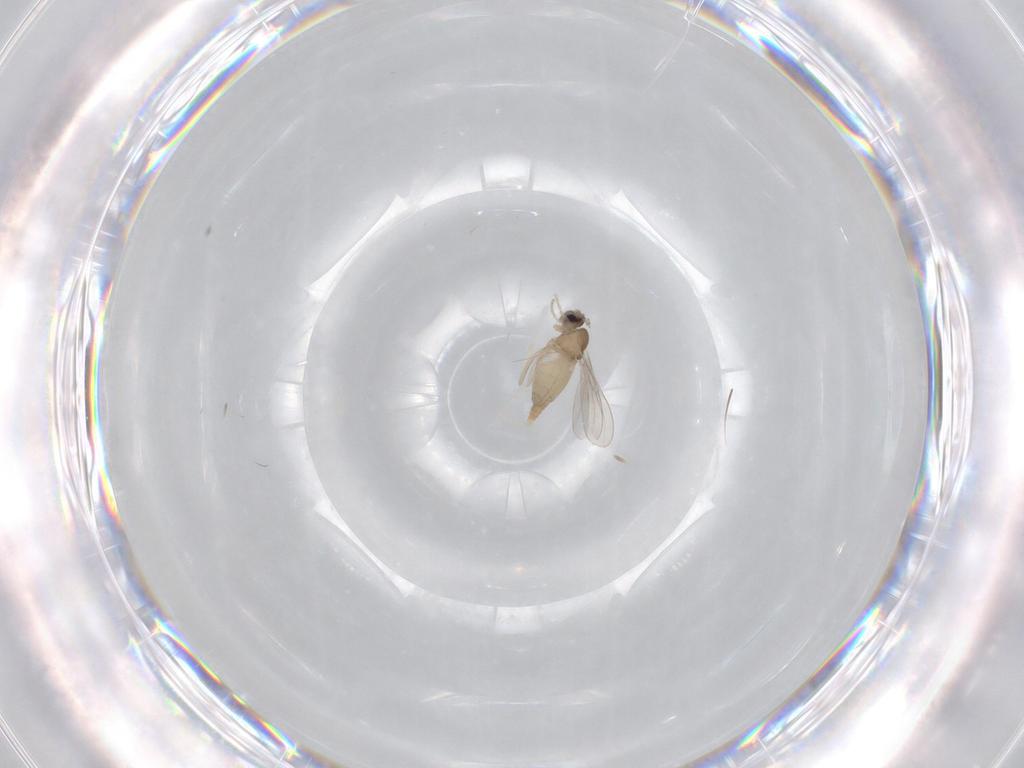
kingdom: Animalia
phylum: Arthropoda
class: Insecta
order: Diptera
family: Cecidomyiidae
